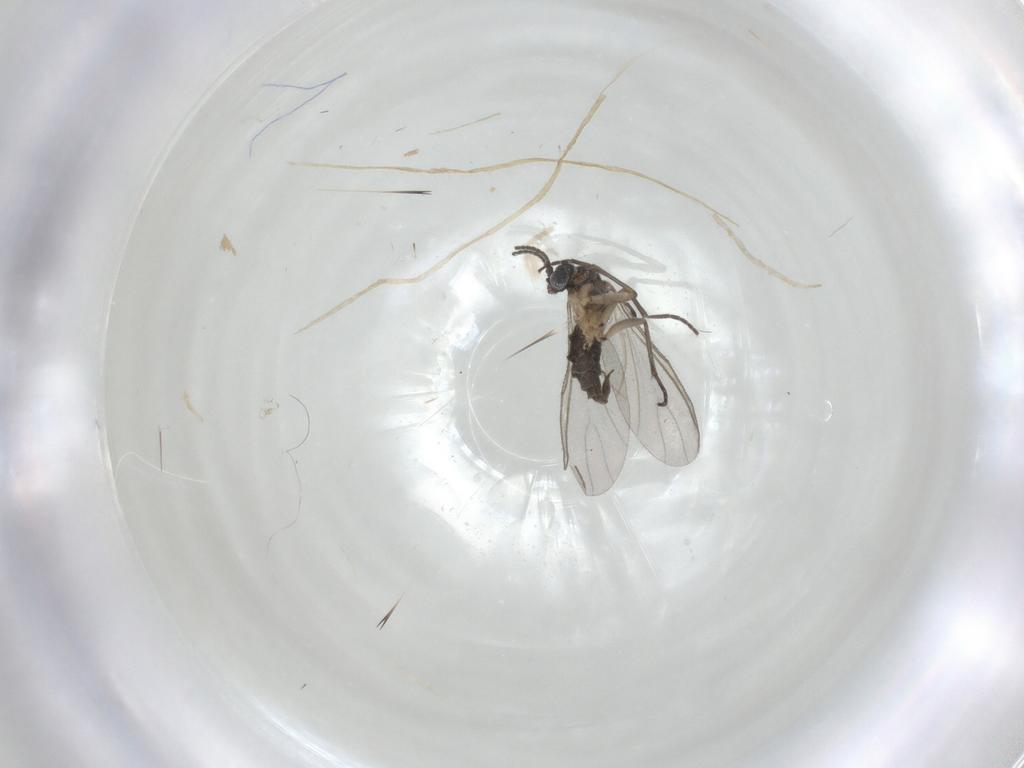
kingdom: Animalia
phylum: Arthropoda
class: Insecta
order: Diptera
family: Sciaridae
